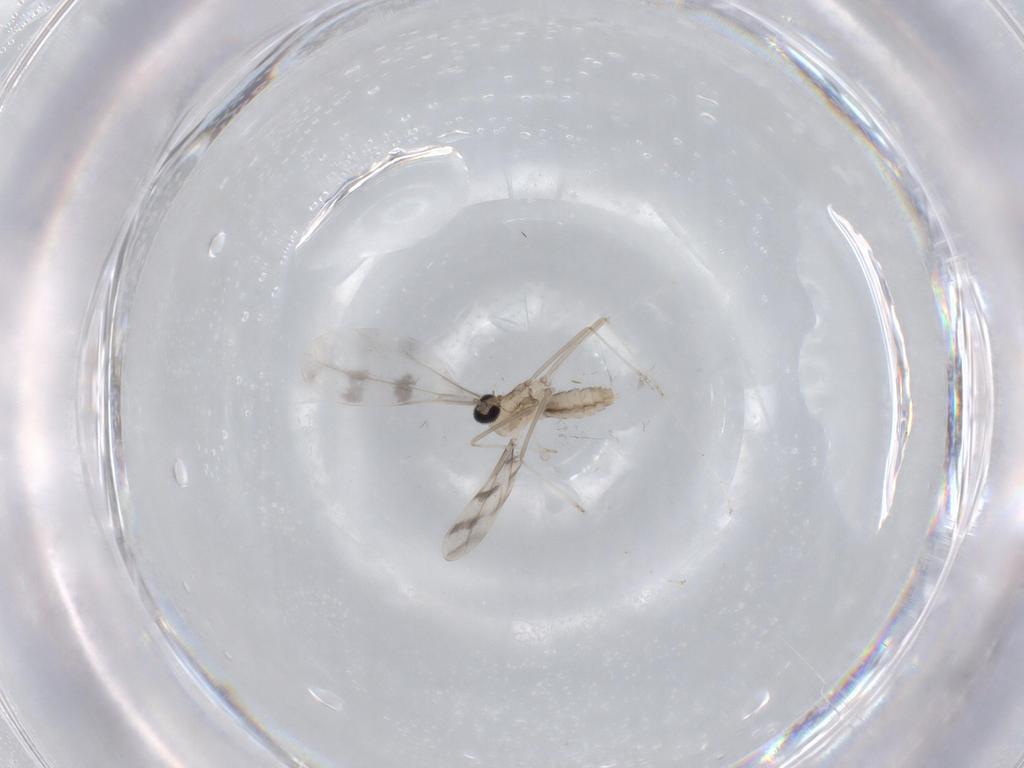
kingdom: Animalia
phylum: Arthropoda
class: Insecta
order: Diptera
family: Cecidomyiidae
